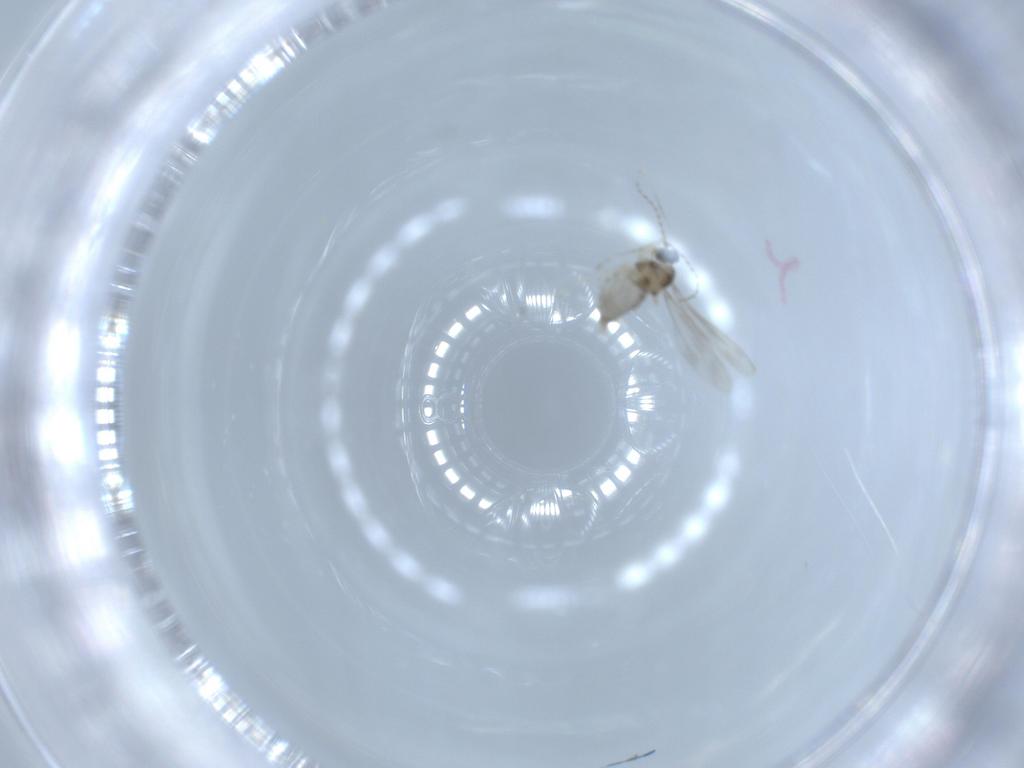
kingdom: Animalia
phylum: Arthropoda
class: Insecta
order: Diptera
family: Cecidomyiidae
